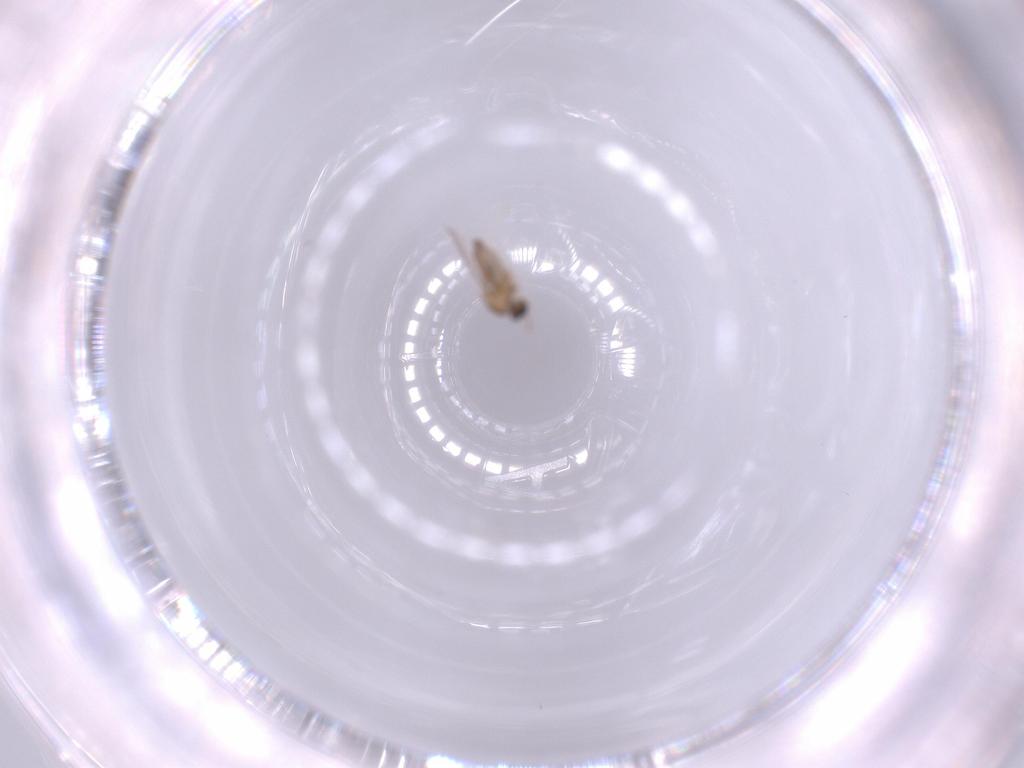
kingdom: Animalia
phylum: Arthropoda
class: Insecta
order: Diptera
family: Cecidomyiidae
